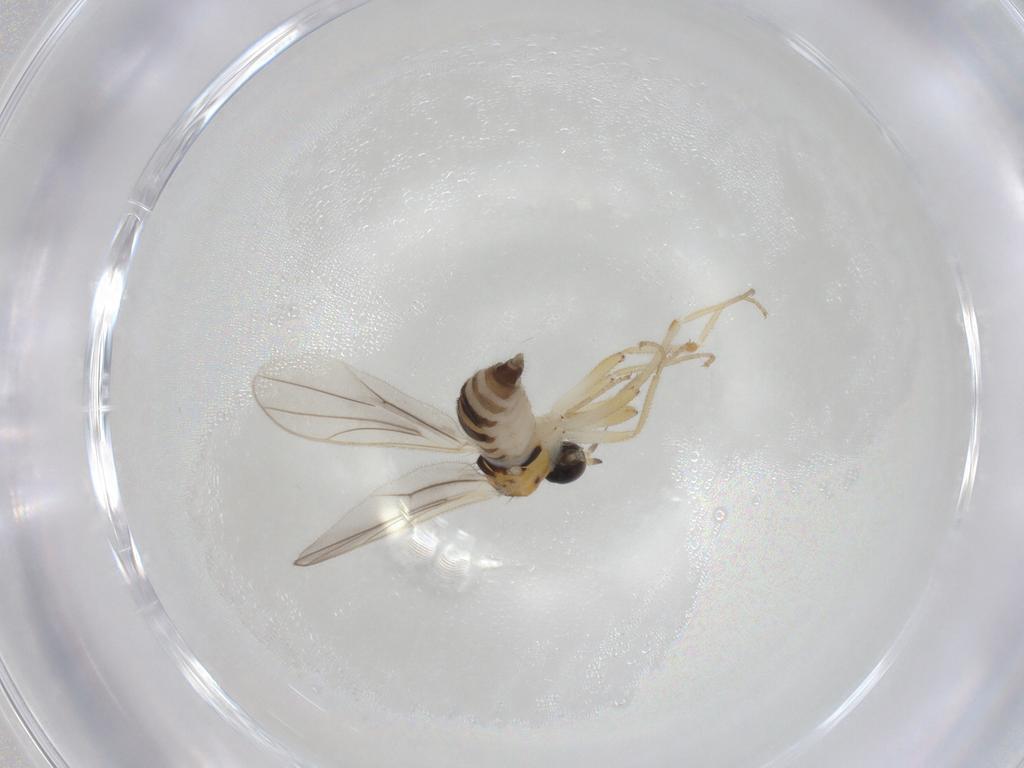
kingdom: Animalia
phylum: Arthropoda
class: Insecta
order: Diptera
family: Hybotidae
